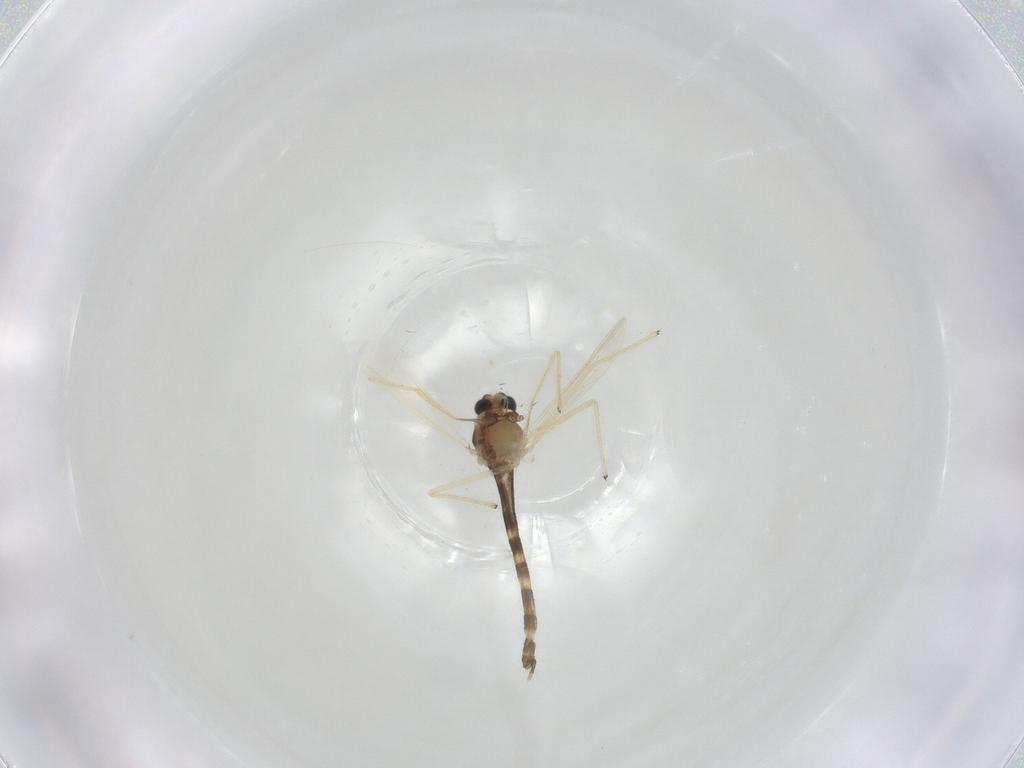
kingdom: Animalia
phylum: Arthropoda
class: Insecta
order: Diptera
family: Chironomidae
